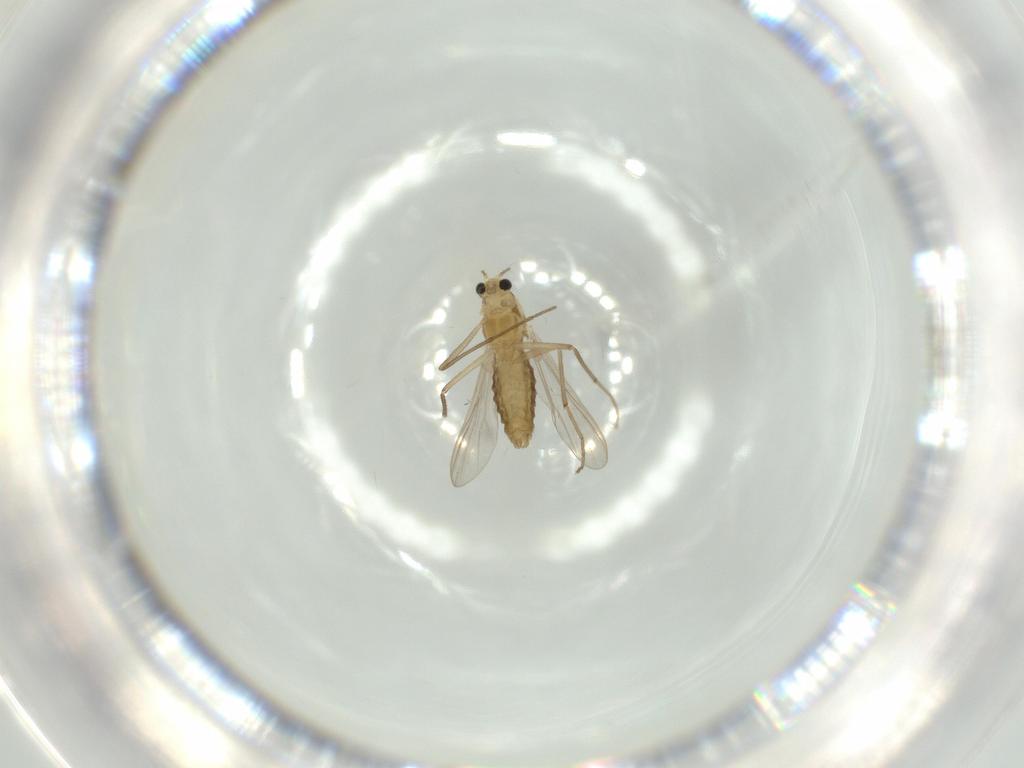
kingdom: Animalia
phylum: Arthropoda
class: Insecta
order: Diptera
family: Sciaridae
